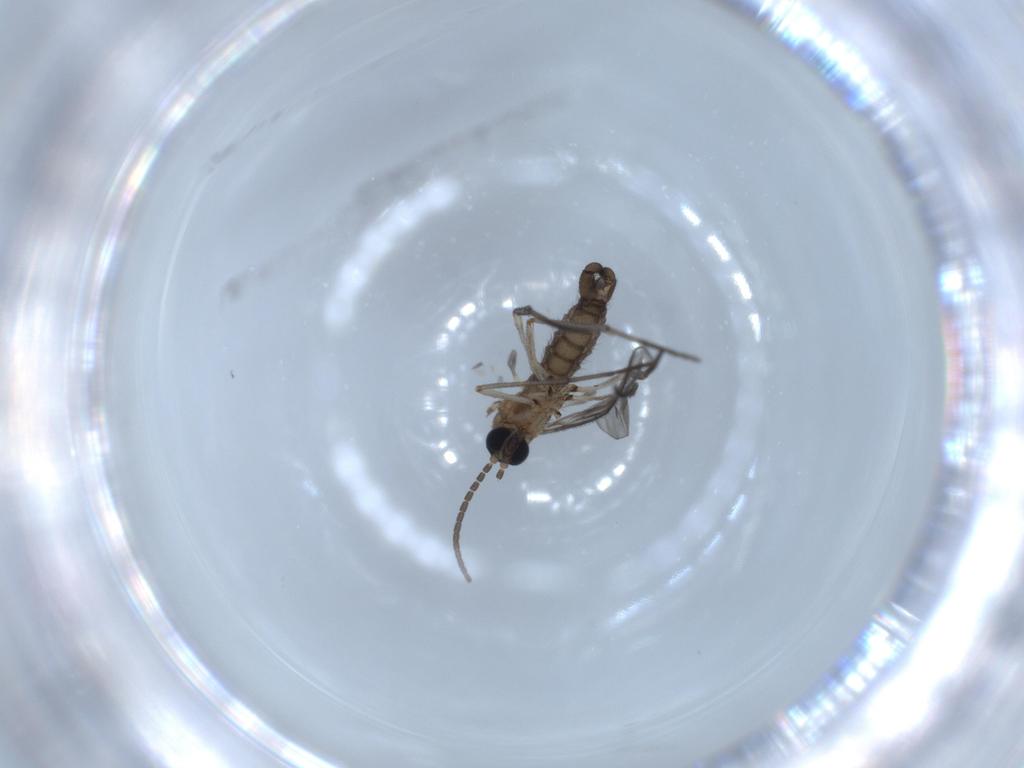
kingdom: Animalia
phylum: Arthropoda
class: Insecta
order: Diptera
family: Sciaridae
